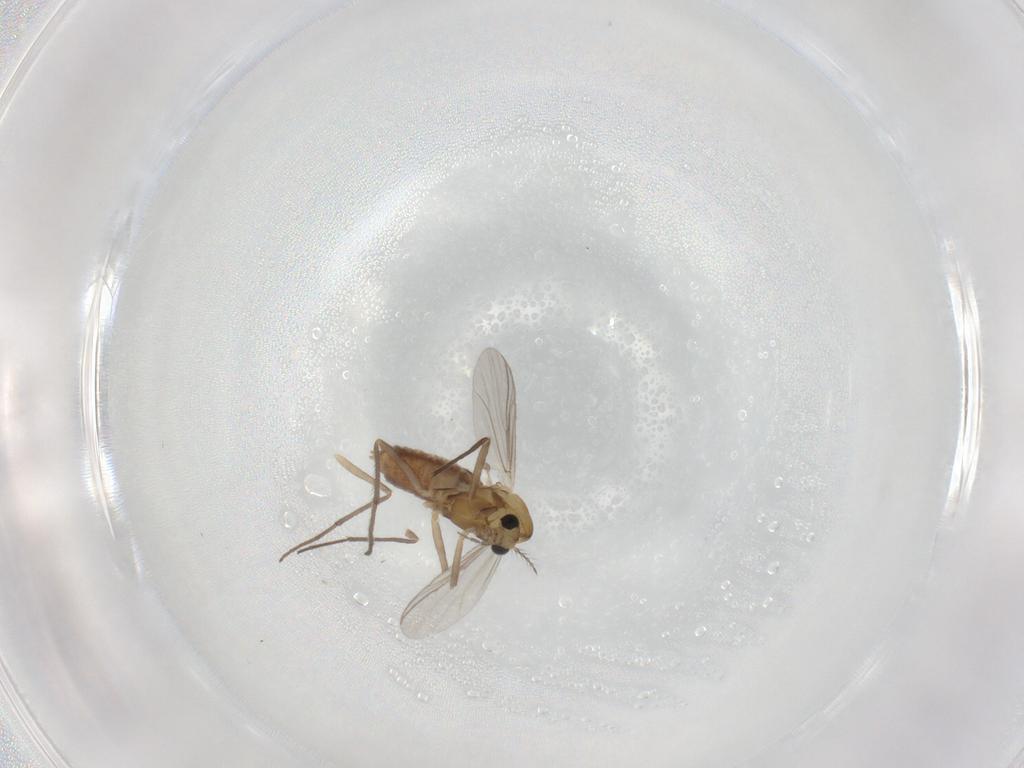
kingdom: Animalia
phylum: Arthropoda
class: Insecta
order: Diptera
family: Chironomidae
